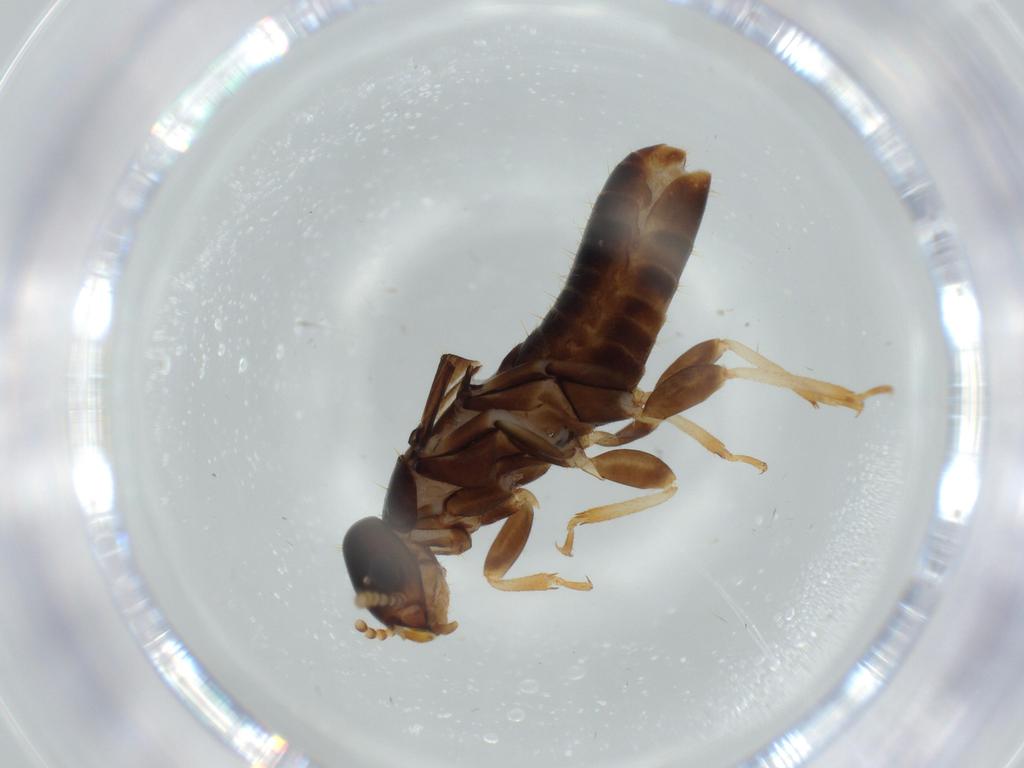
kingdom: Animalia
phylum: Arthropoda
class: Insecta
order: Blattodea
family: Kalotermitidae
